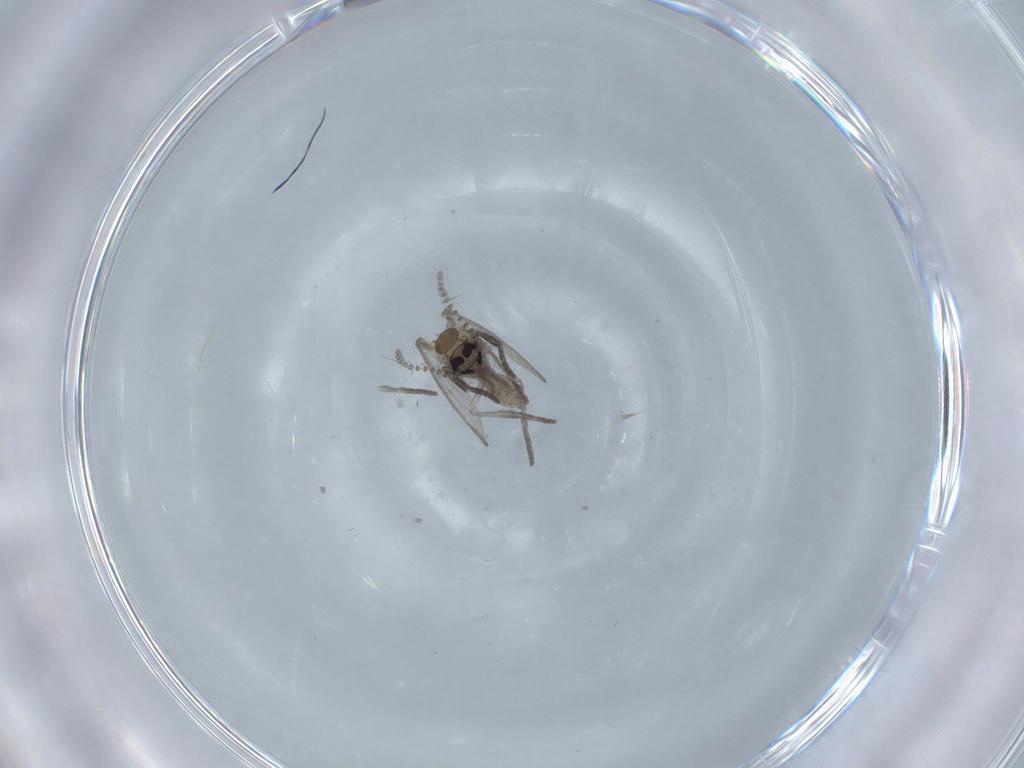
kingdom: Animalia
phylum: Arthropoda
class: Insecta
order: Diptera
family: Psychodidae
